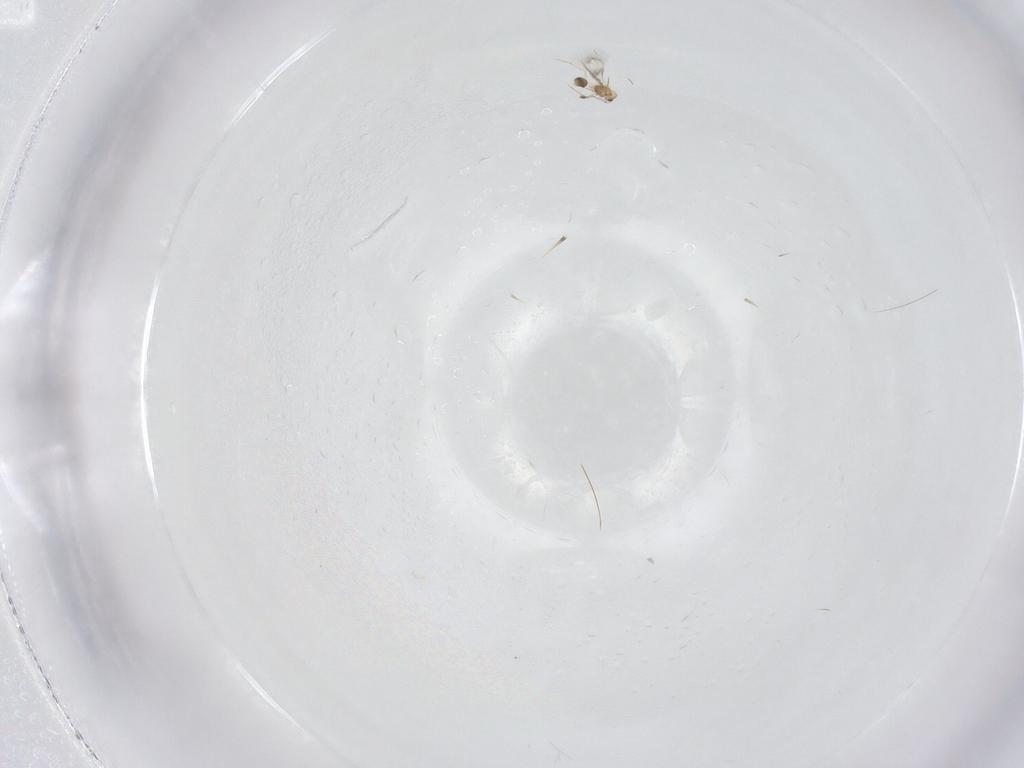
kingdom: Animalia
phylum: Arthropoda
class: Insecta
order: Hymenoptera
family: Mymarommatidae
